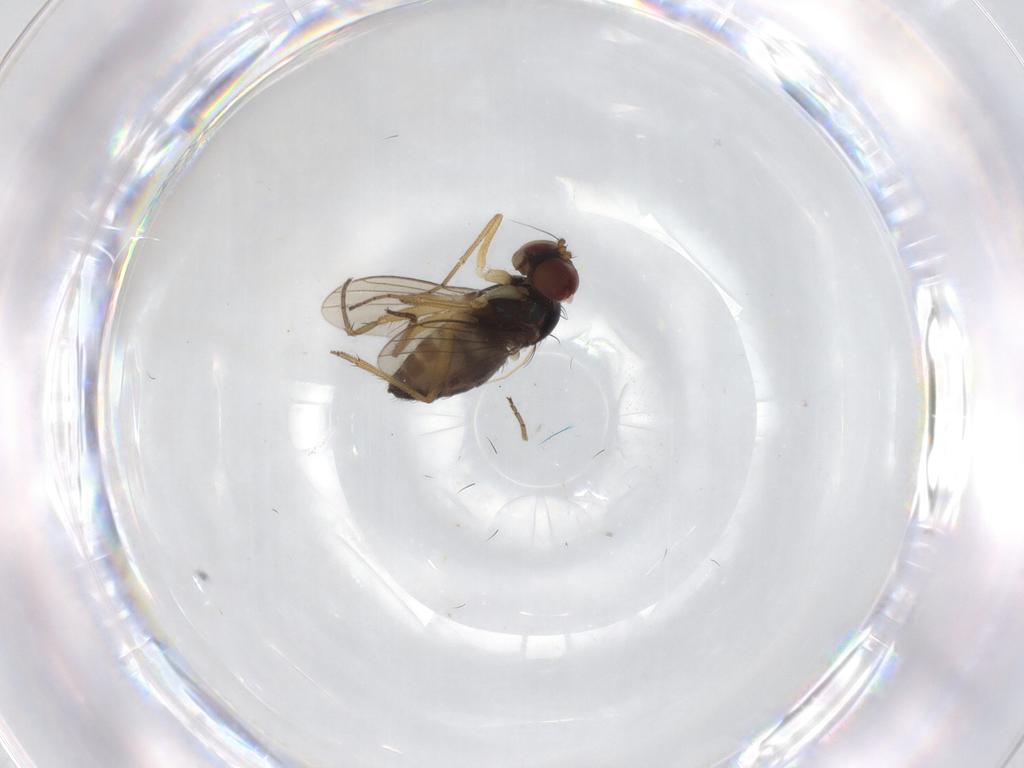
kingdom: Animalia
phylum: Arthropoda
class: Insecta
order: Diptera
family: Dolichopodidae
